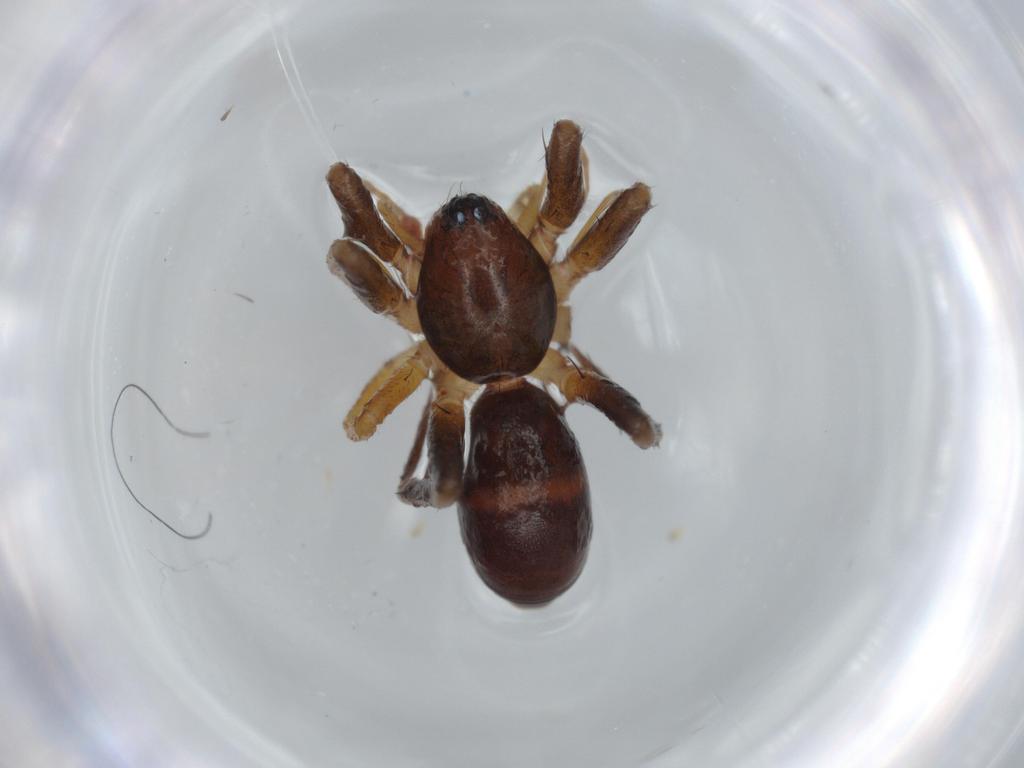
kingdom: Animalia
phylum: Arthropoda
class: Arachnida
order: Araneae
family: Corinnidae
